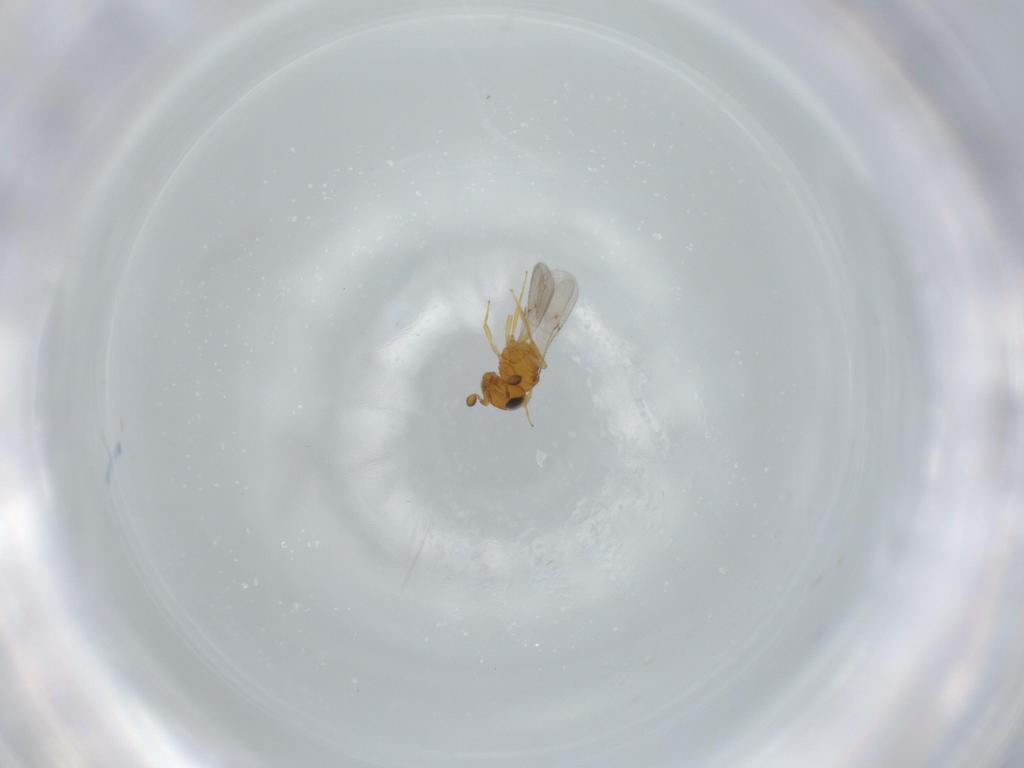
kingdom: Animalia
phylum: Arthropoda
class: Insecta
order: Hymenoptera
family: Scelionidae
